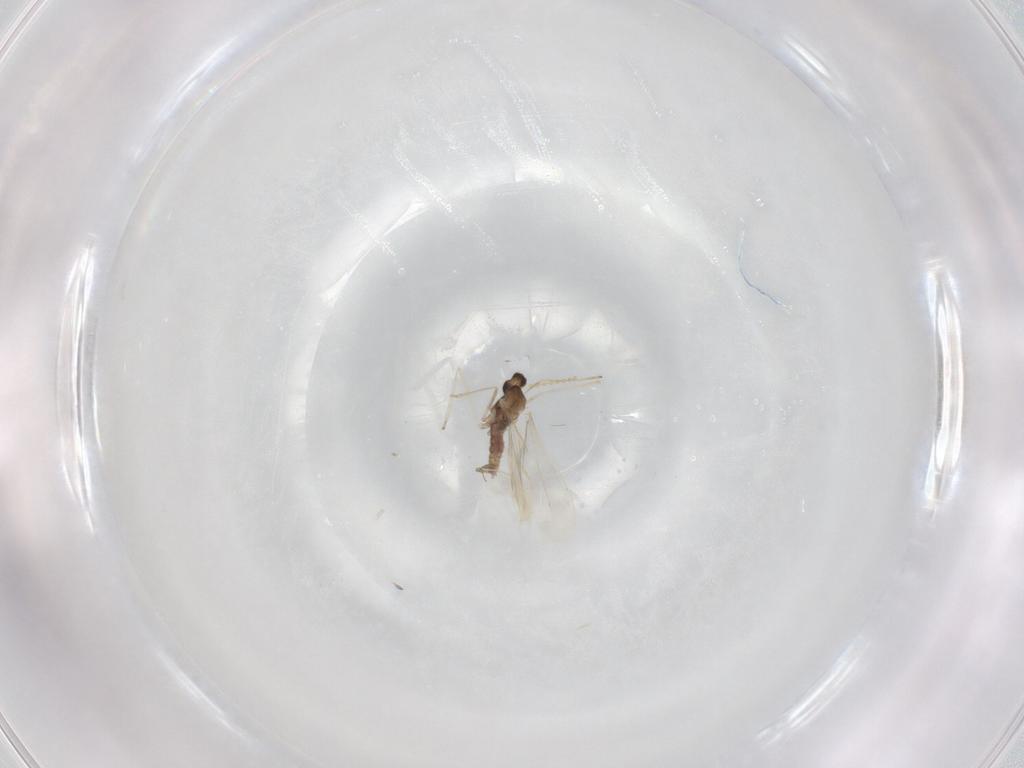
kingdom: Animalia
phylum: Arthropoda
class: Insecta
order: Diptera
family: Cecidomyiidae
